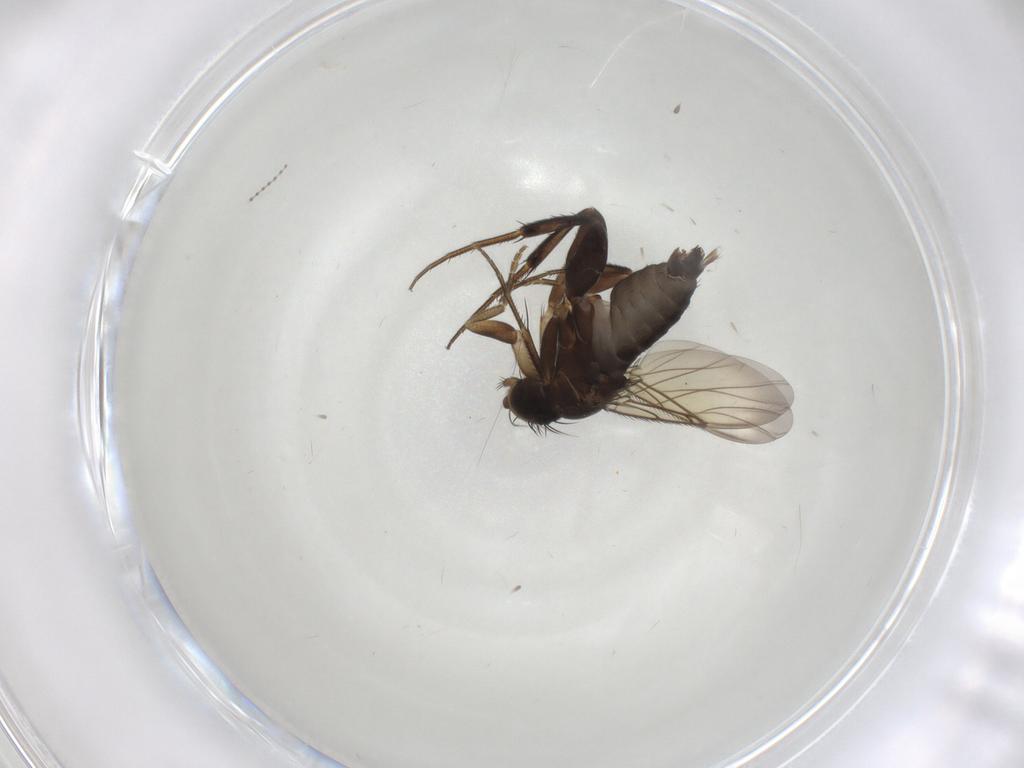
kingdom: Animalia
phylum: Arthropoda
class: Insecta
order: Diptera
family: Phoridae
